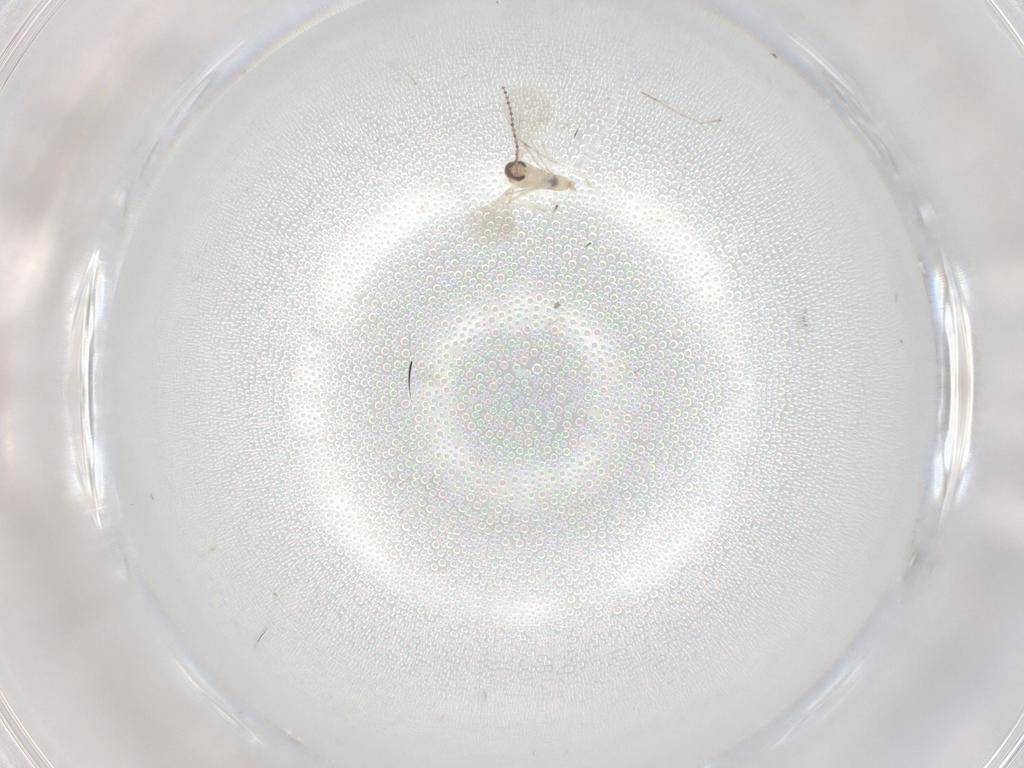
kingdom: Animalia
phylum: Arthropoda
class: Insecta
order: Diptera
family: Cecidomyiidae
